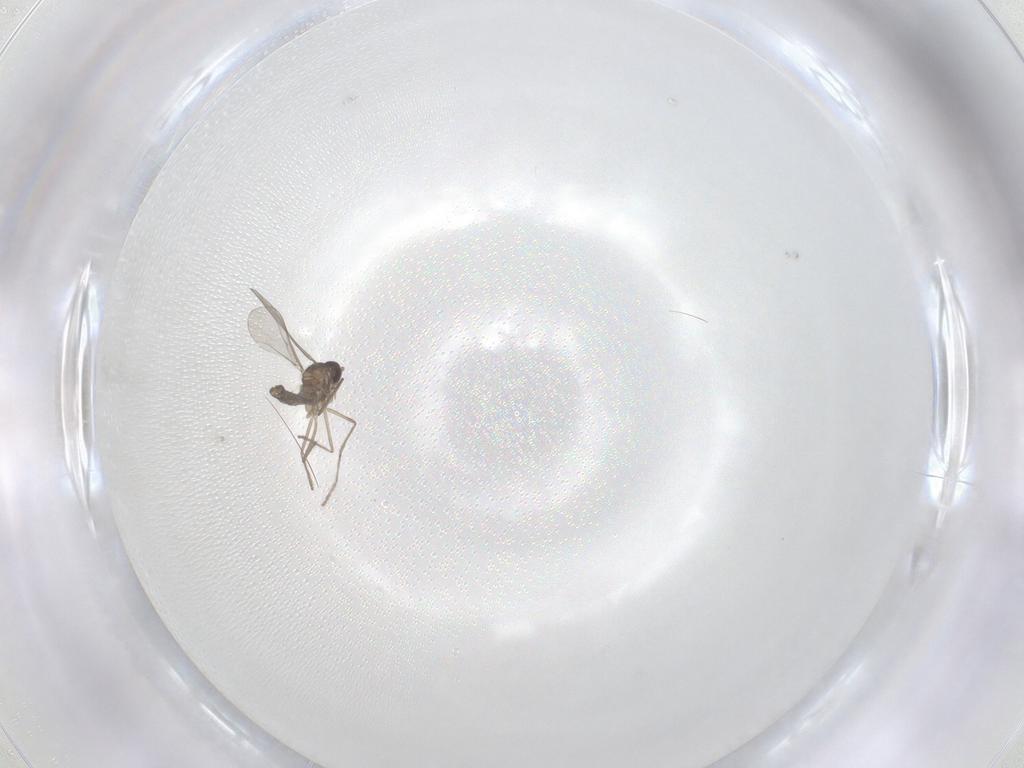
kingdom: Animalia
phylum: Arthropoda
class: Insecta
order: Diptera
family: Cecidomyiidae
